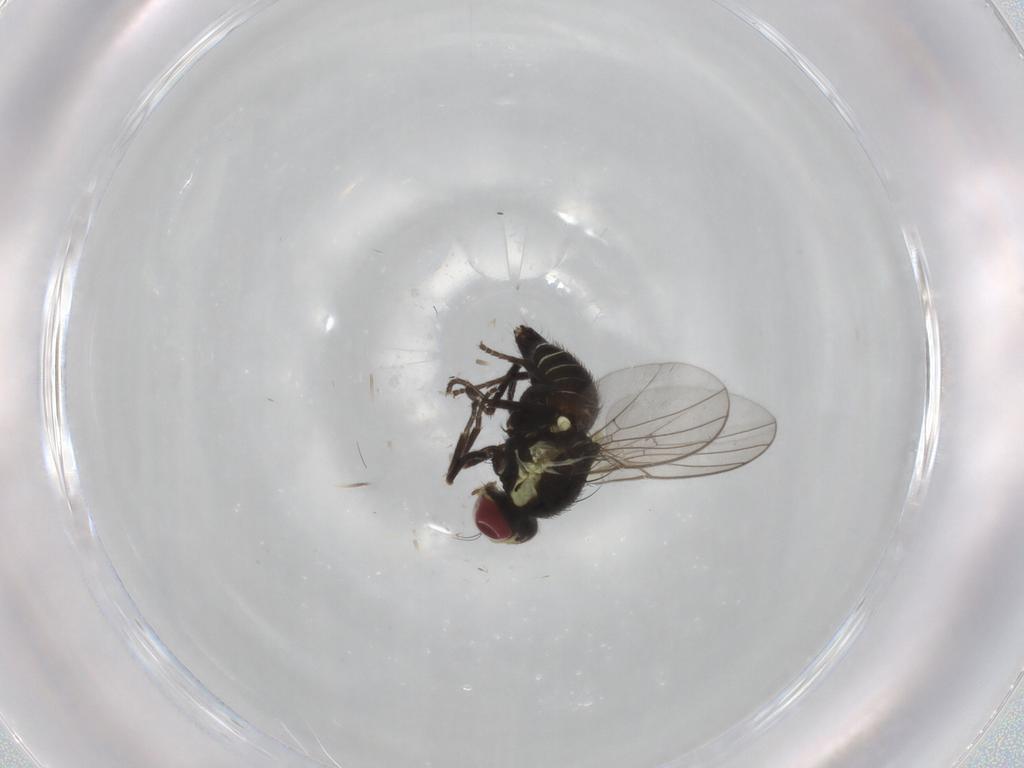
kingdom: Animalia
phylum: Arthropoda
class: Insecta
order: Diptera
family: Agromyzidae
